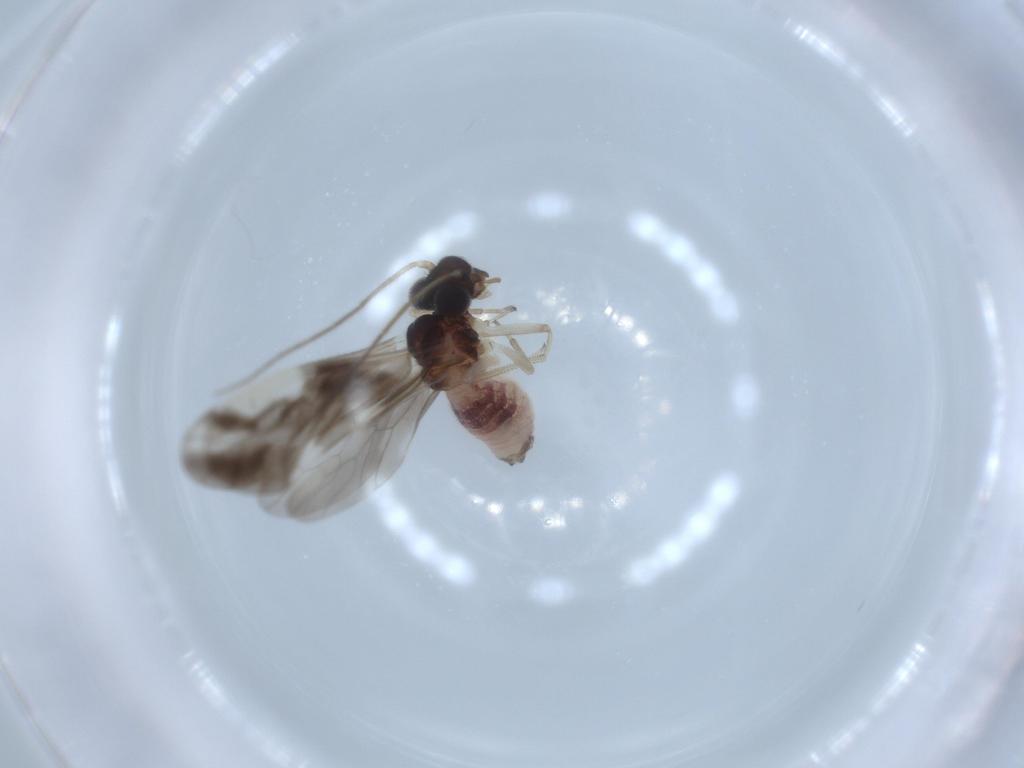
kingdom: Animalia
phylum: Arthropoda
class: Insecta
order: Psocodea
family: Caeciliusidae
